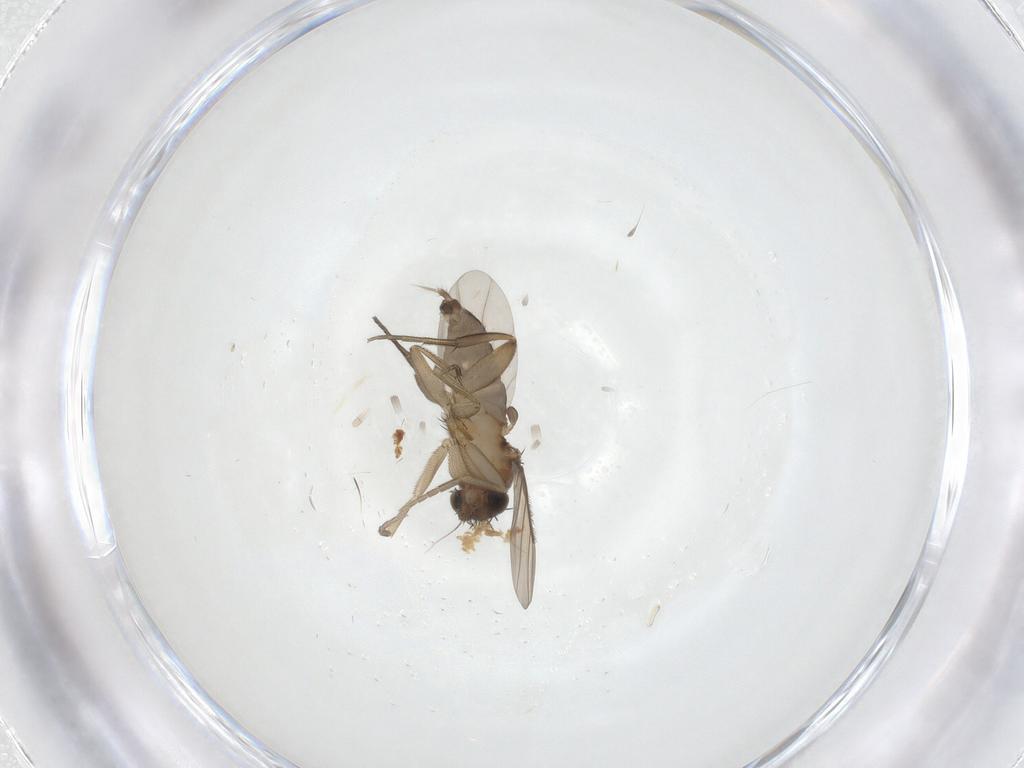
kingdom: Animalia
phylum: Arthropoda
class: Insecta
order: Diptera
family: Phoridae
